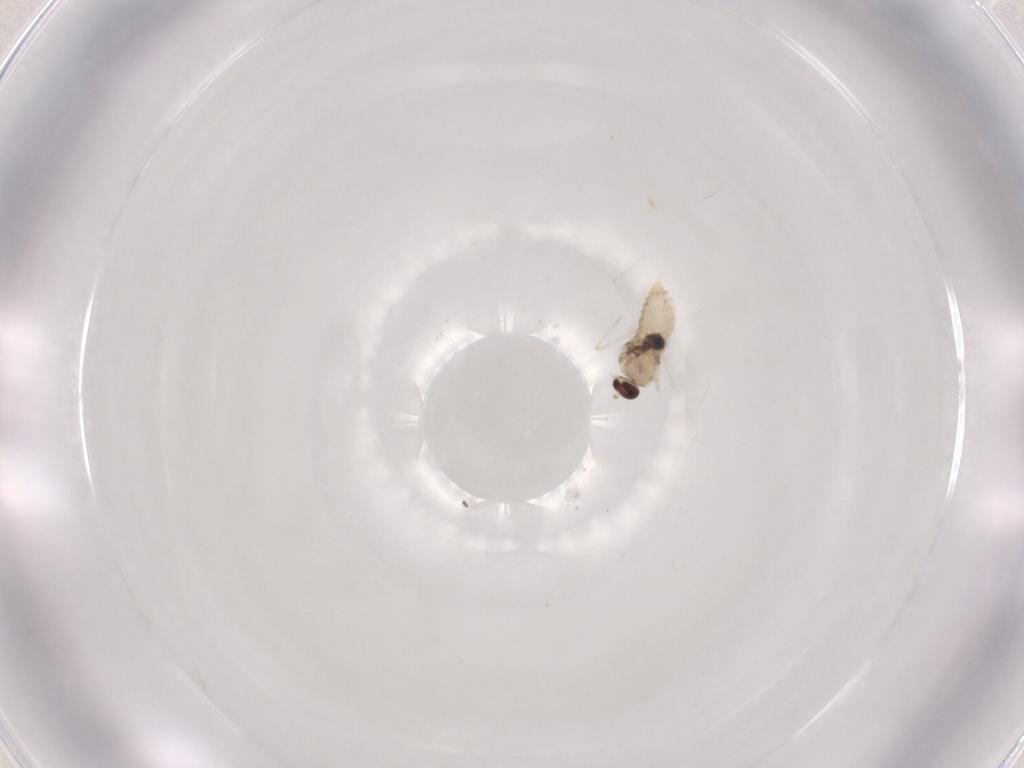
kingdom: Animalia
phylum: Arthropoda
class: Insecta
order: Diptera
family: Cecidomyiidae
